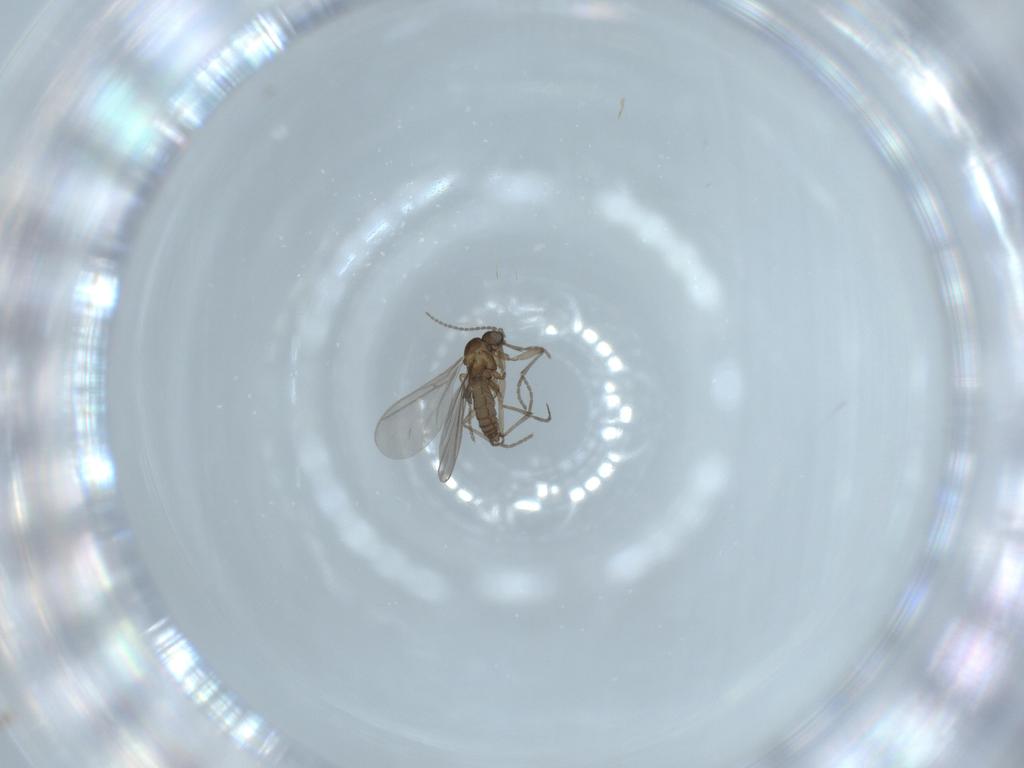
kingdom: Animalia
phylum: Arthropoda
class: Insecta
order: Diptera
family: Sciaridae
